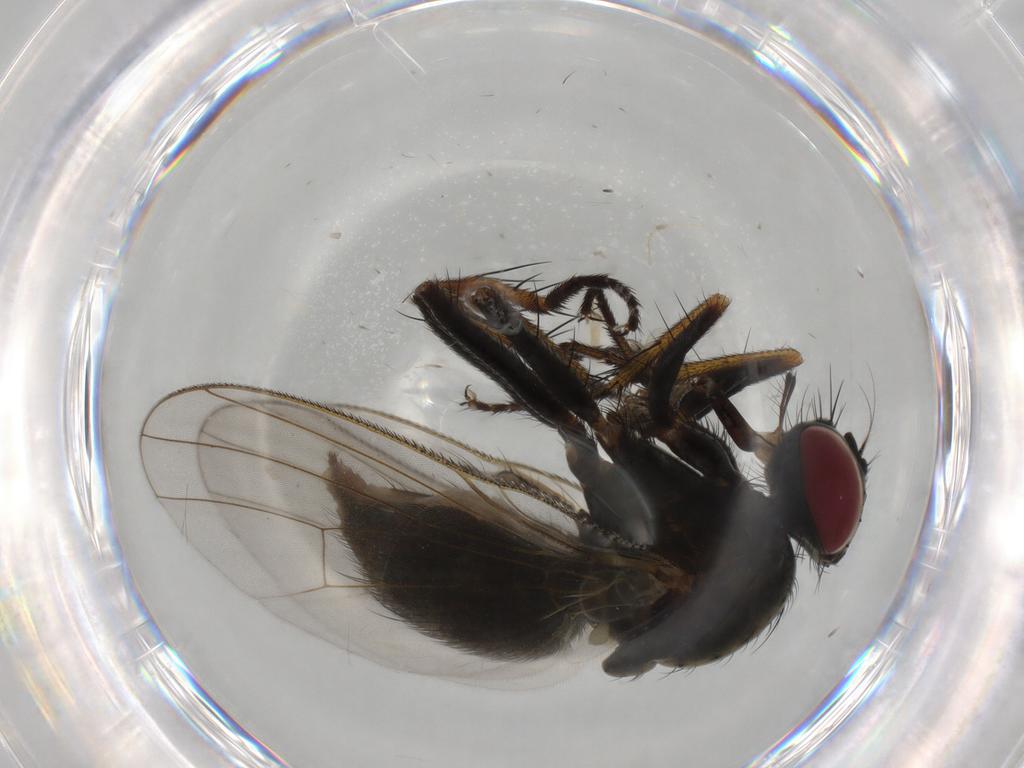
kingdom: Animalia
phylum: Arthropoda
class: Insecta
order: Diptera
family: Muscidae
